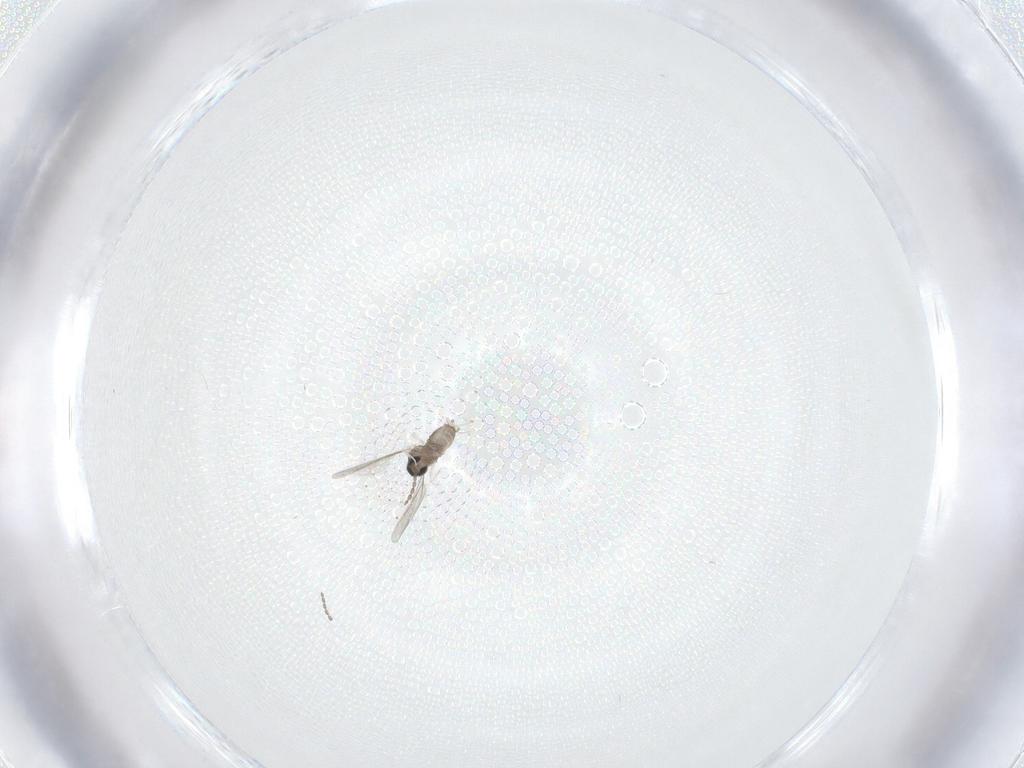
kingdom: Animalia
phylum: Arthropoda
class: Insecta
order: Diptera
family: Cecidomyiidae
